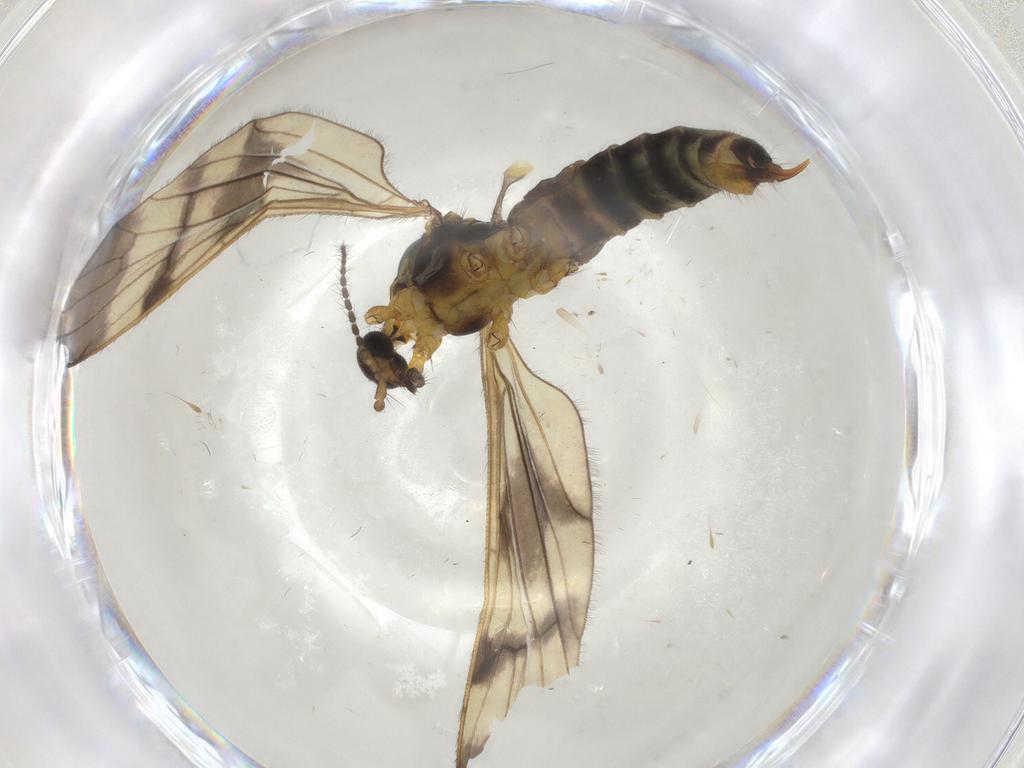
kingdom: Animalia
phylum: Arthropoda
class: Insecta
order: Diptera
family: Limoniidae
